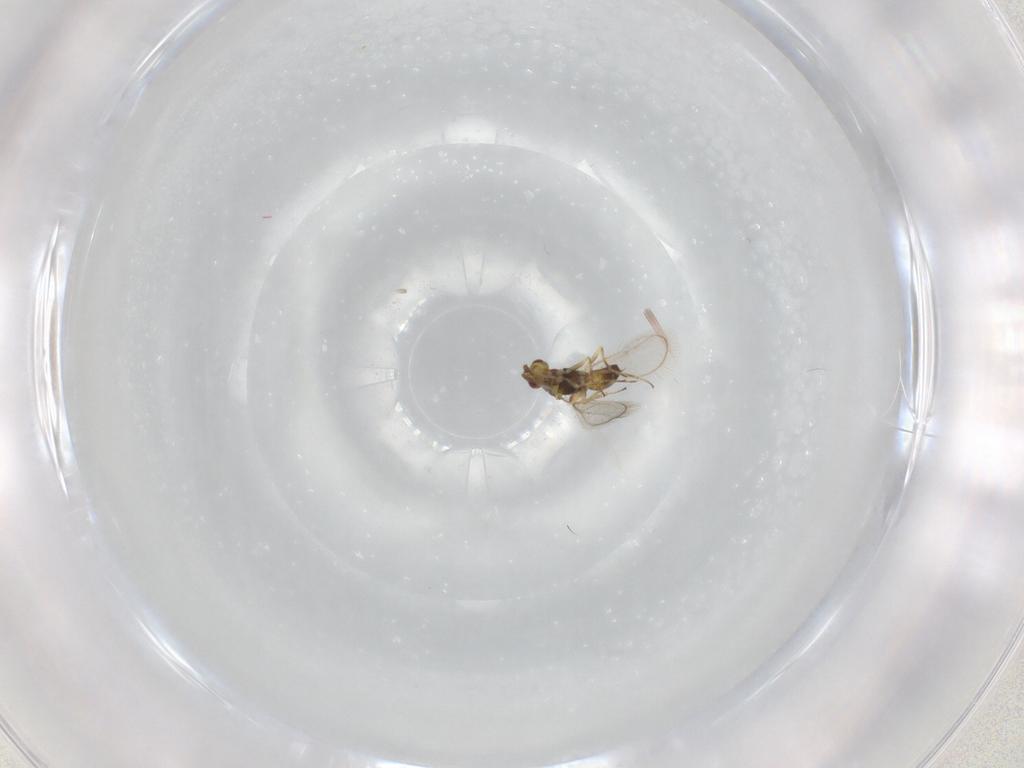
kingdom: Animalia
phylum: Arthropoda
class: Insecta
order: Hymenoptera
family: Eulophidae
